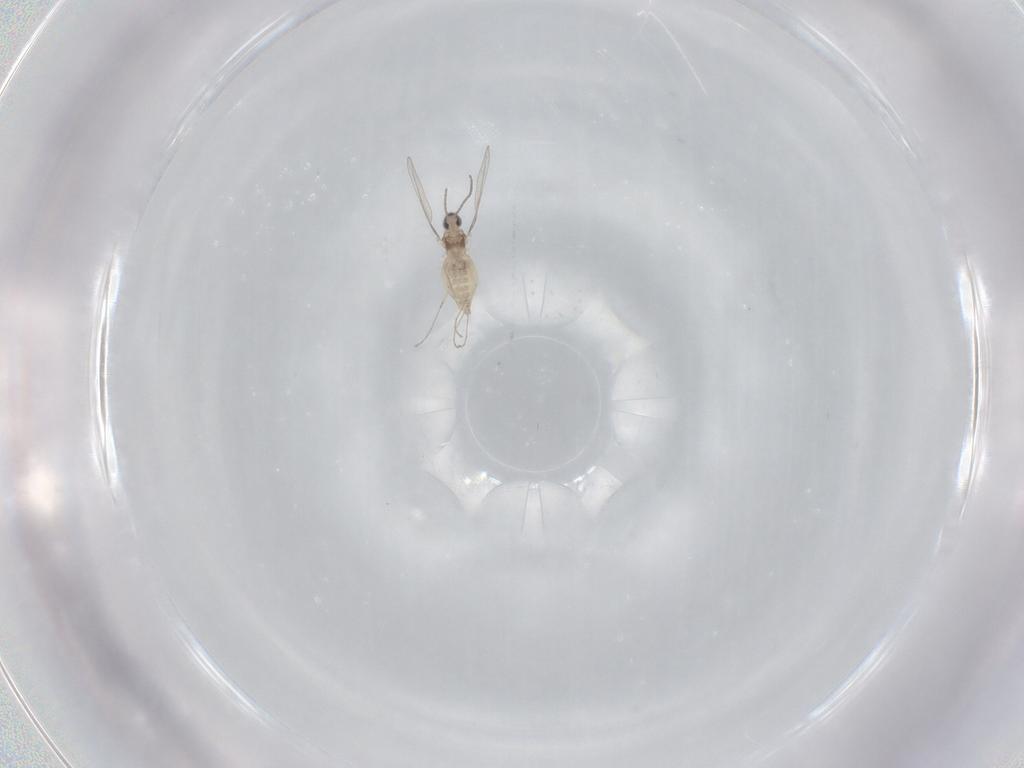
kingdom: Animalia
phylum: Arthropoda
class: Insecta
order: Diptera
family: Cecidomyiidae
